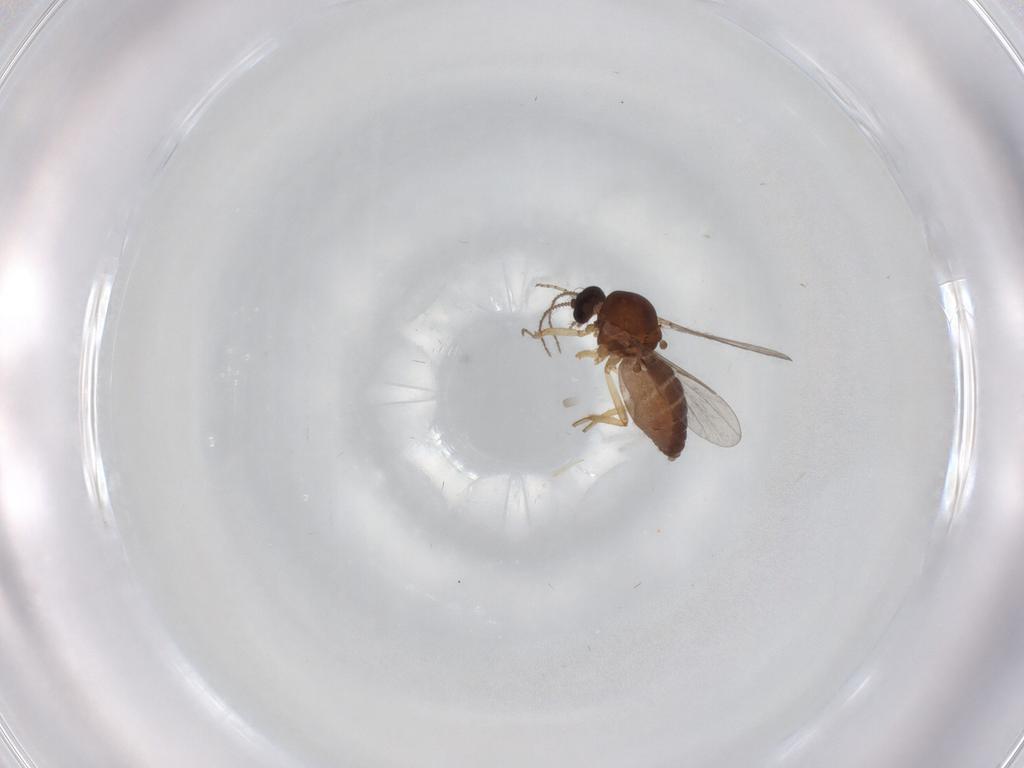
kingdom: Animalia
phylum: Arthropoda
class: Insecta
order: Diptera
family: Ceratopogonidae
